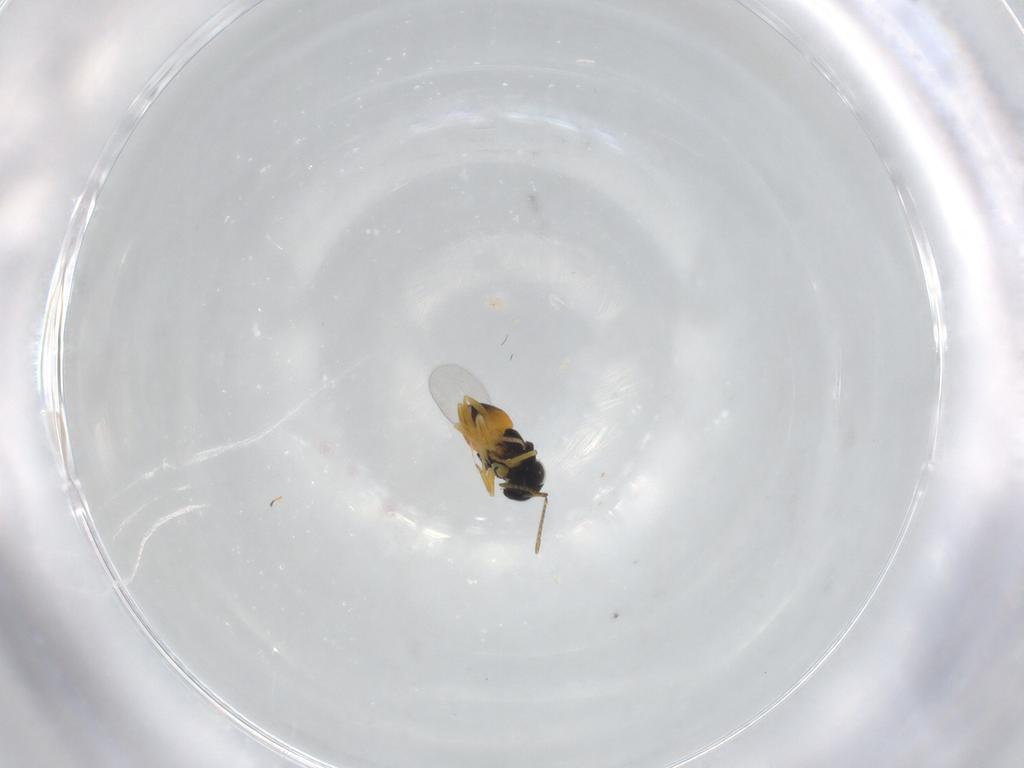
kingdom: Animalia
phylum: Arthropoda
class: Insecta
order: Hymenoptera
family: Encyrtidae
